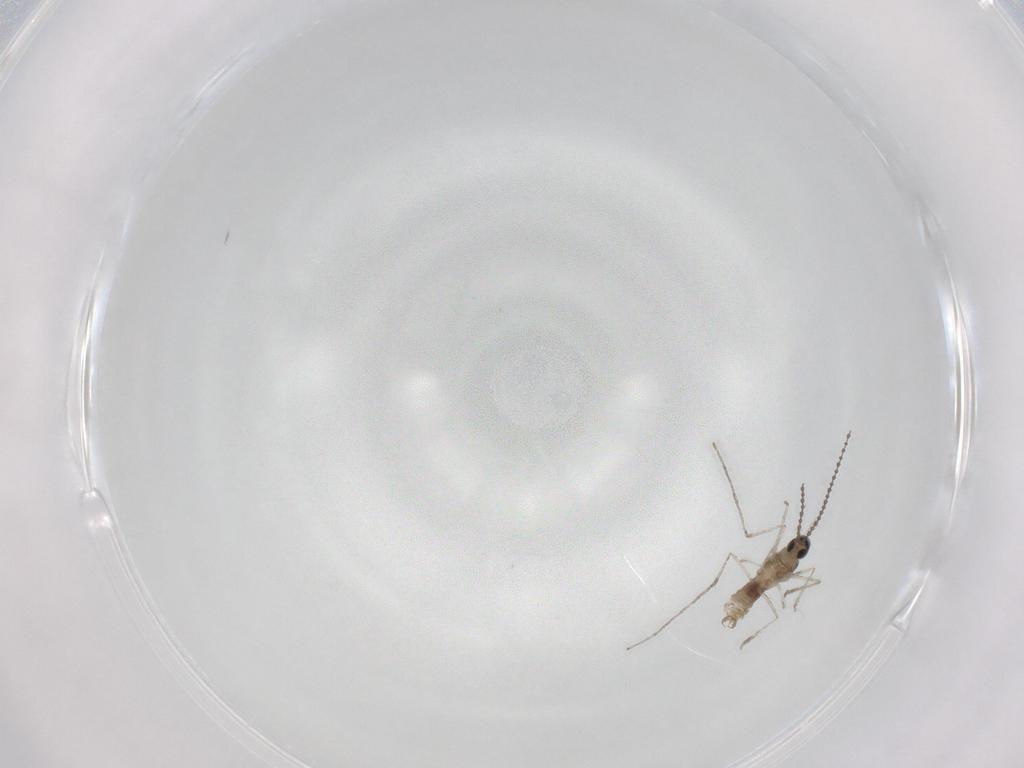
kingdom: Animalia
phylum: Arthropoda
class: Insecta
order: Diptera
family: Cecidomyiidae
